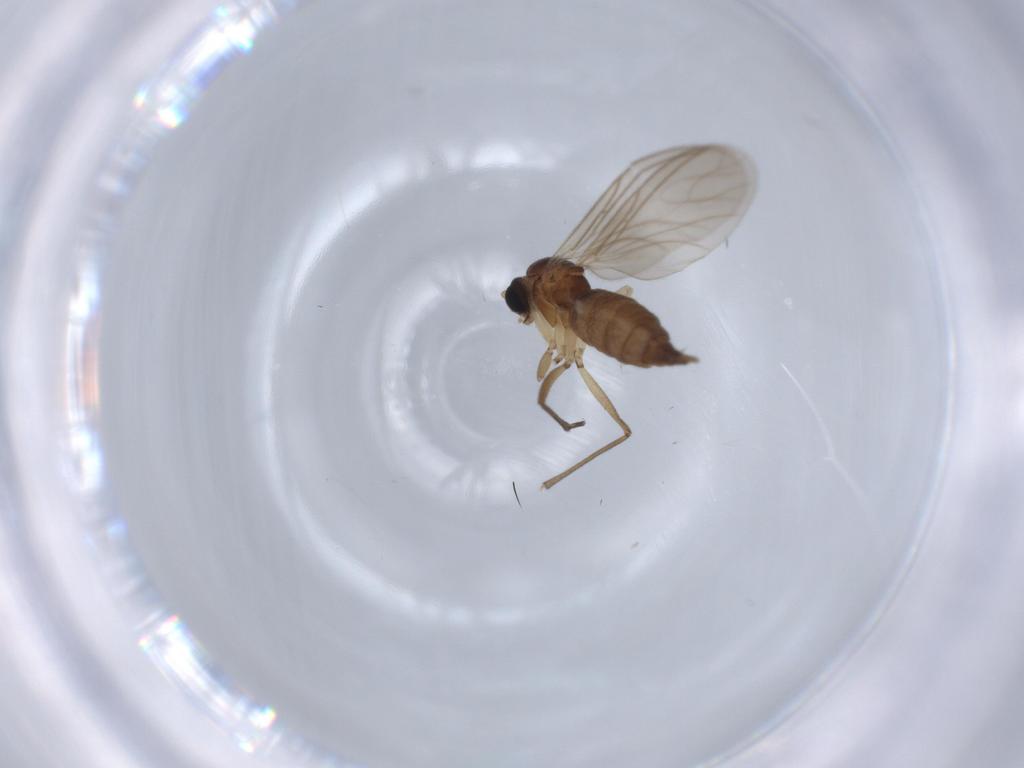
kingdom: Animalia
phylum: Arthropoda
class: Insecta
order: Diptera
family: Sciaridae
